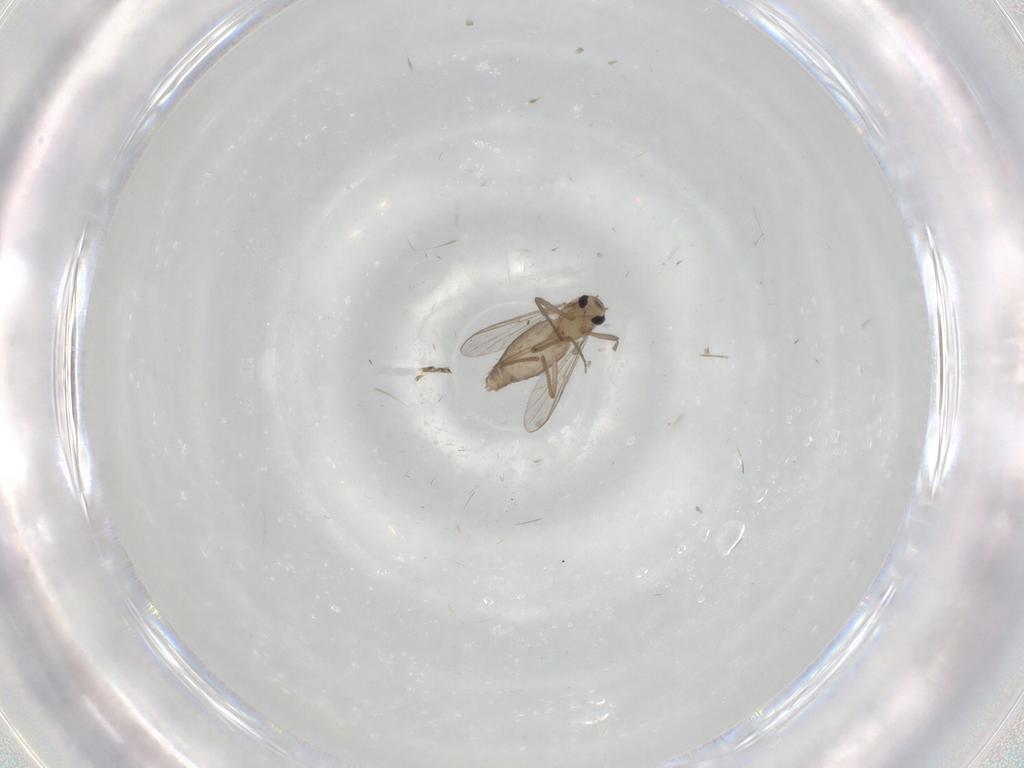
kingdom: Animalia
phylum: Arthropoda
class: Insecta
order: Diptera
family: Chironomidae
